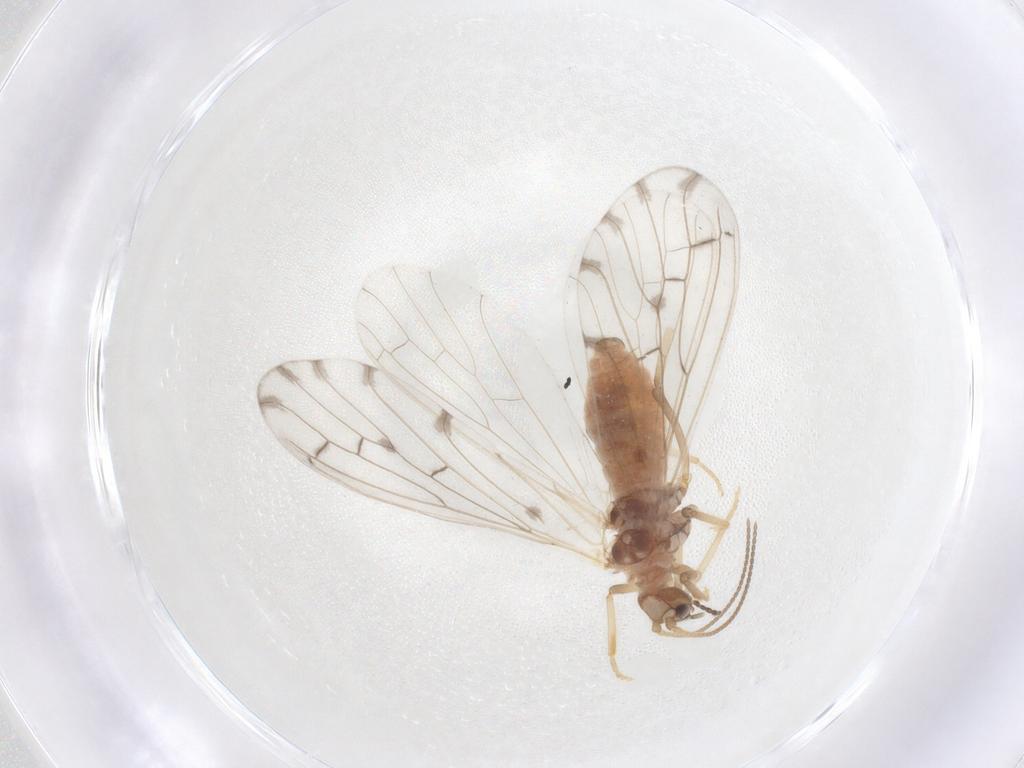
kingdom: Animalia
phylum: Arthropoda
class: Insecta
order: Neuroptera
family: Coniopterygidae
